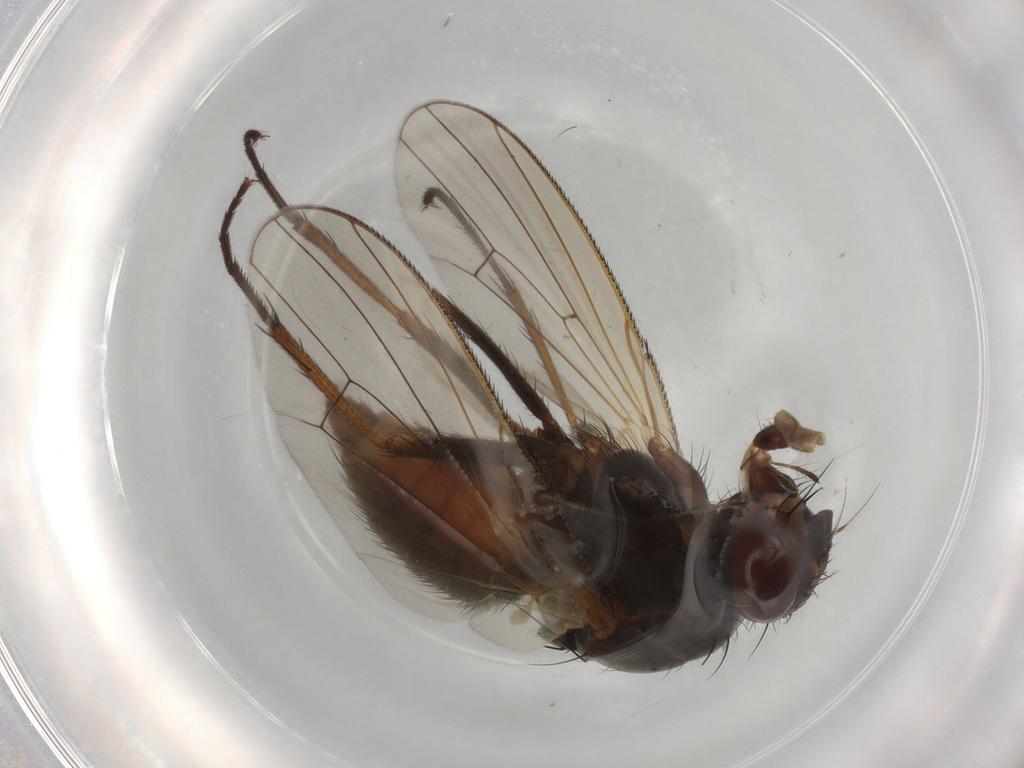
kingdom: Animalia
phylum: Arthropoda
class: Insecta
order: Diptera
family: Anthomyiidae
